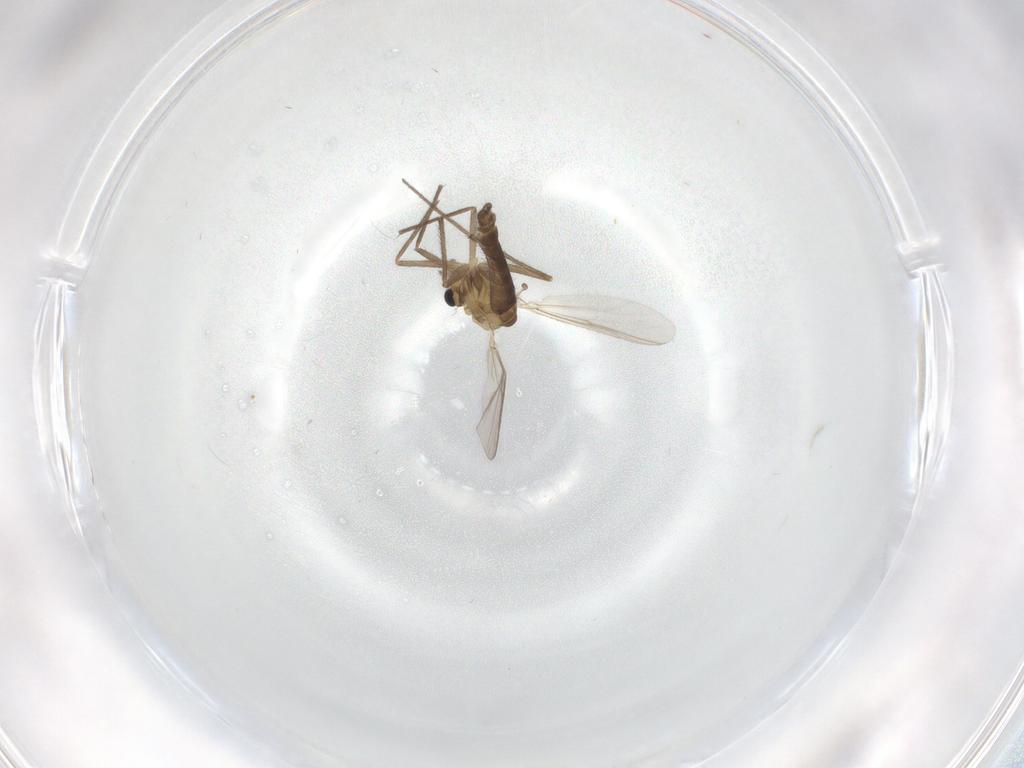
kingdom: Animalia
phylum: Arthropoda
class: Insecta
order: Diptera
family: Chironomidae
